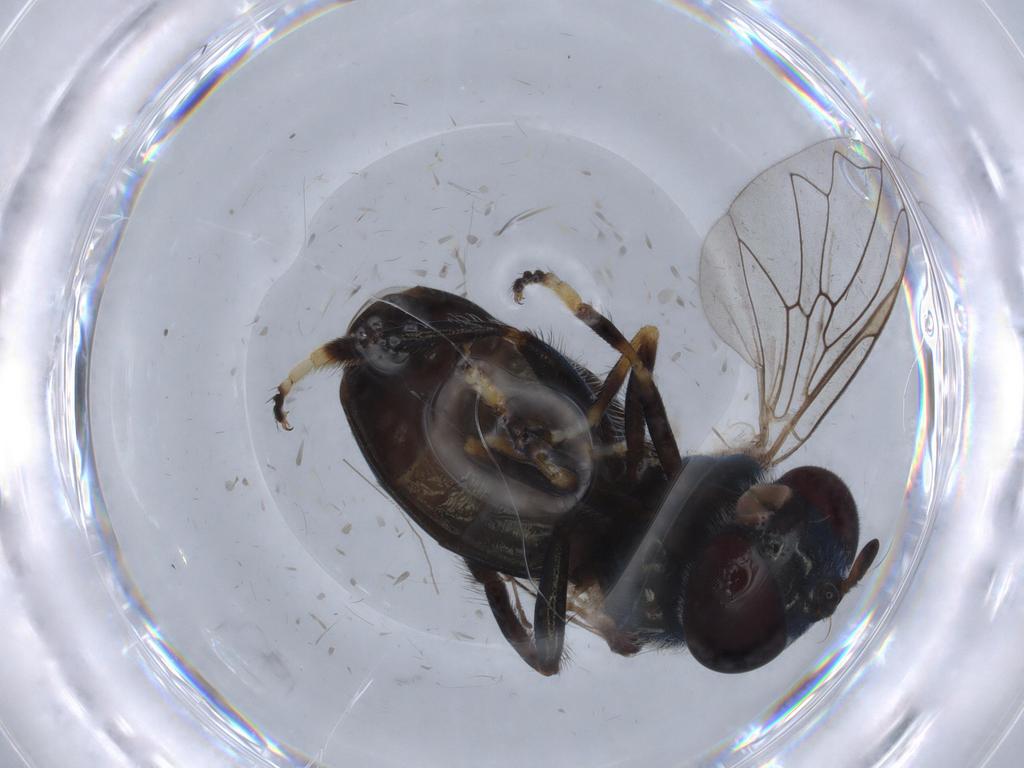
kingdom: Animalia
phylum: Arthropoda
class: Insecta
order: Diptera
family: Syrphidae
